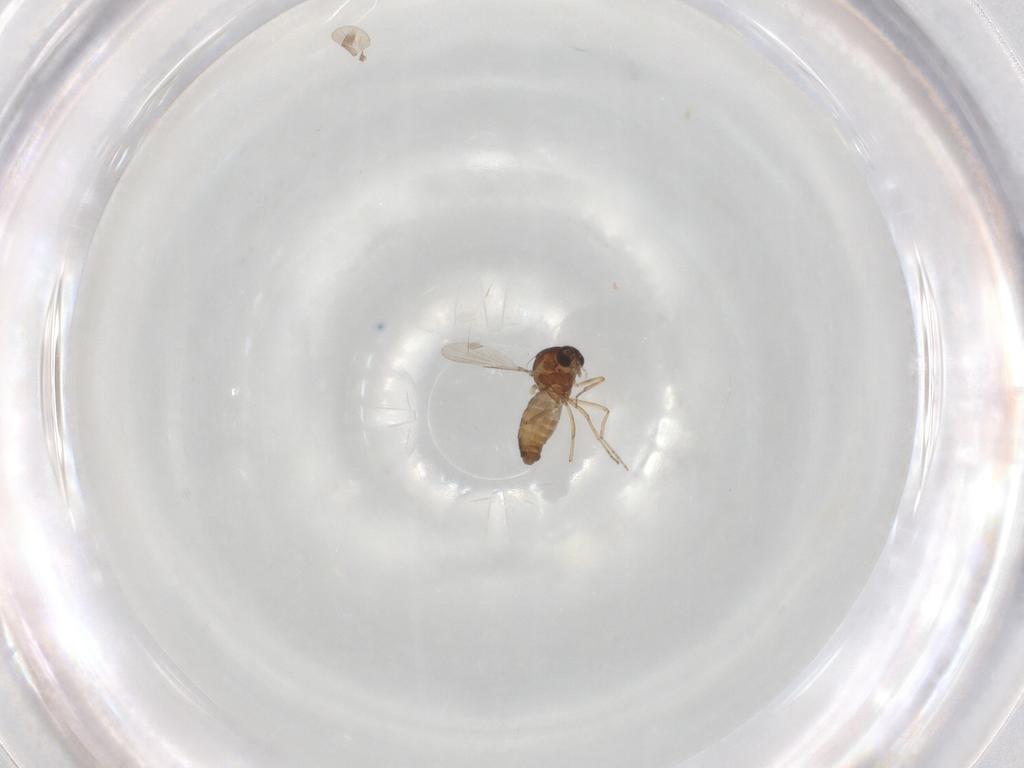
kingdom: Animalia
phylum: Arthropoda
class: Insecta
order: Diptera
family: Ceratopogonidae
